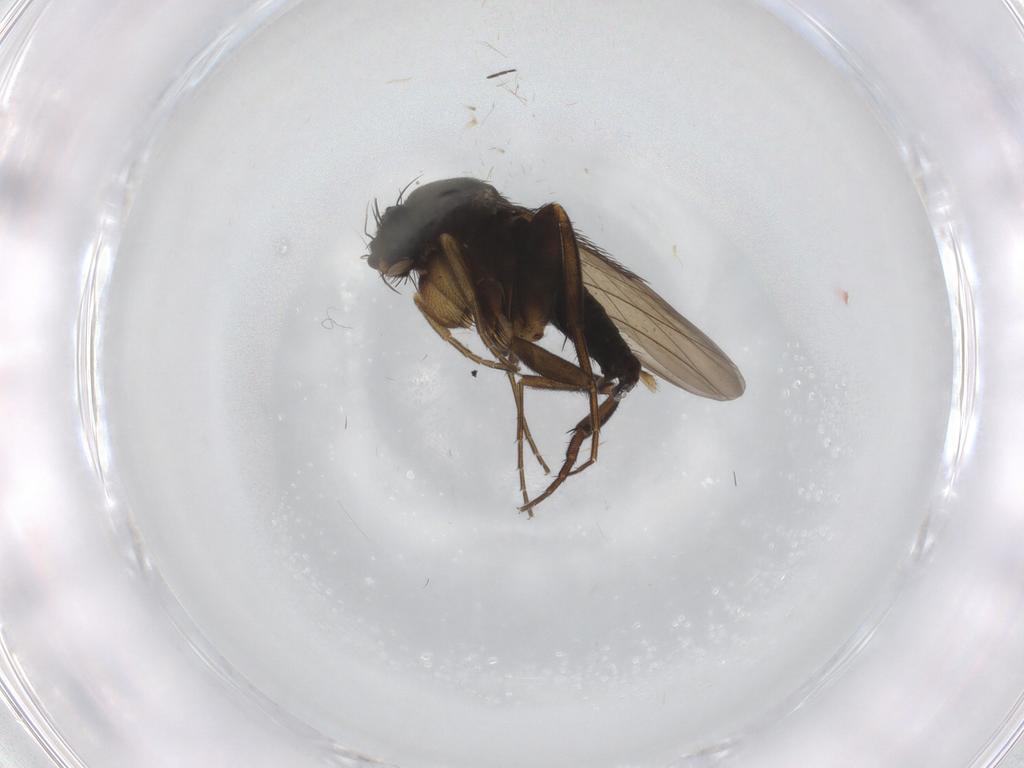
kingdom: Animalia
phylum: Arthropoda
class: Insecta
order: Diptera
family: Phoridae
